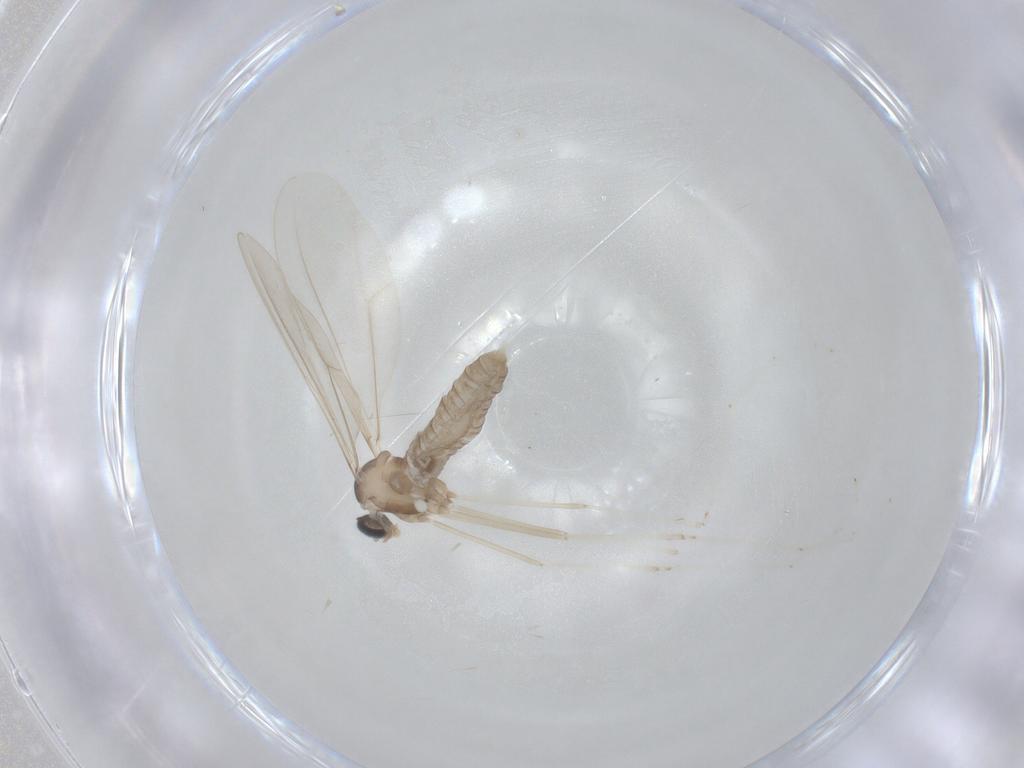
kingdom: Animalia
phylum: Arthropoda
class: Insecta
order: Diptera
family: Cecidomyiidae
